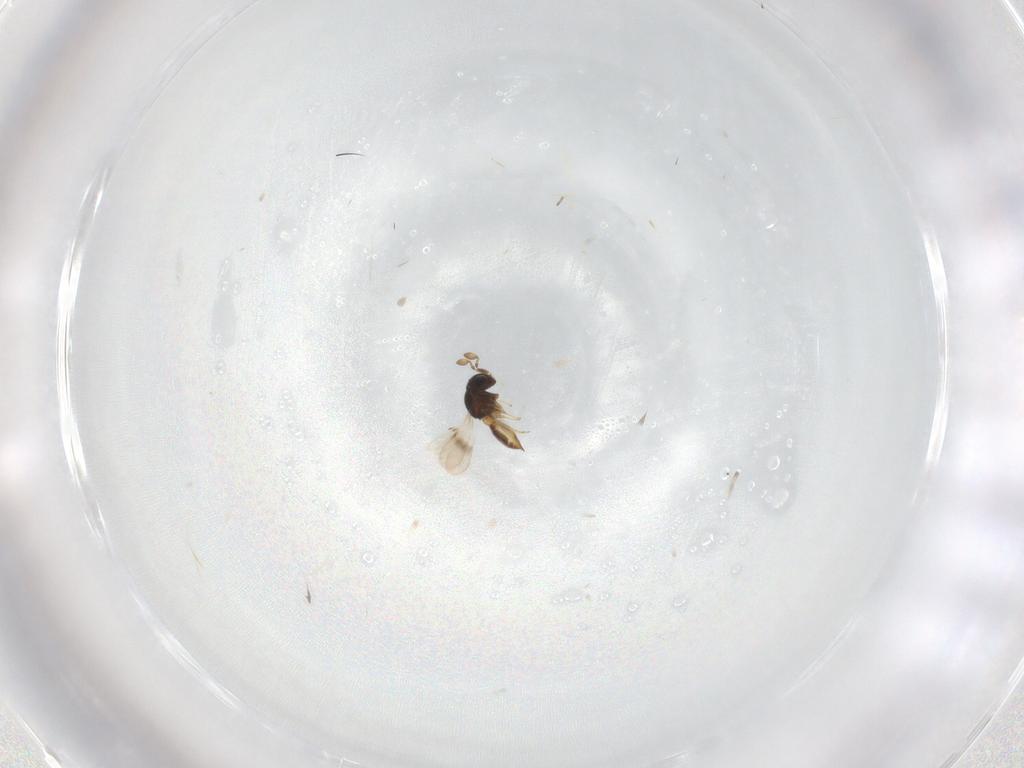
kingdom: Animalia
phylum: Arthropoda
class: Insecta
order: Hymenoptera
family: Scelionidae
